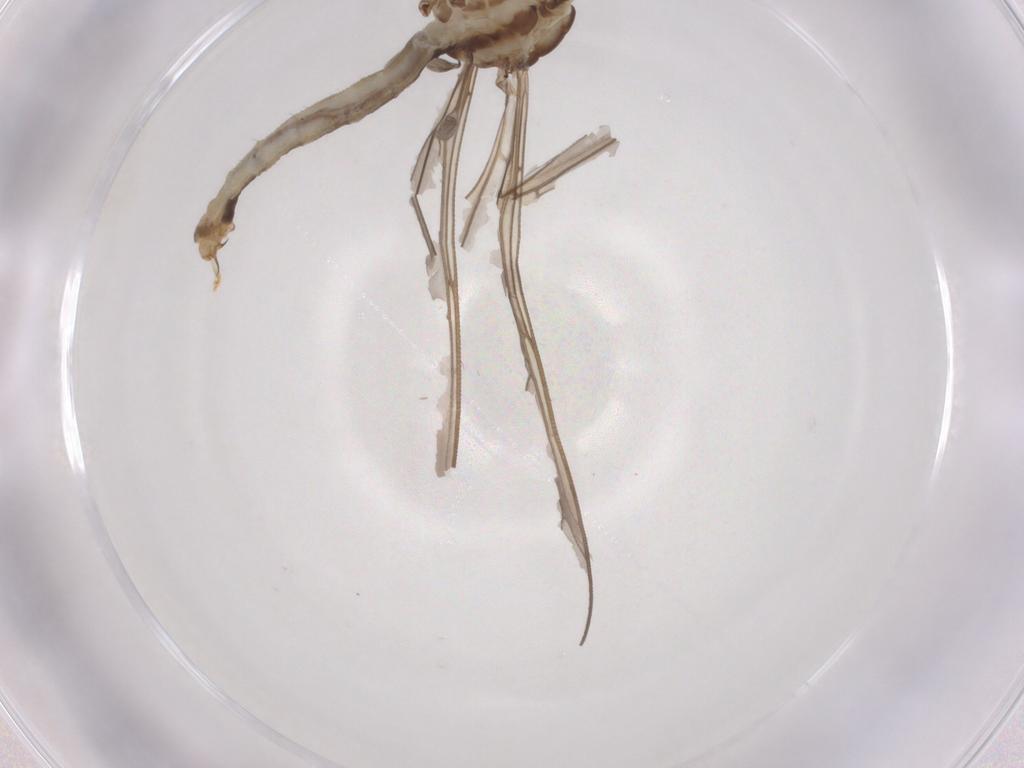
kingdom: Animalia
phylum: Arthropoda
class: Insecta
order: Diptera
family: Limoniidae
